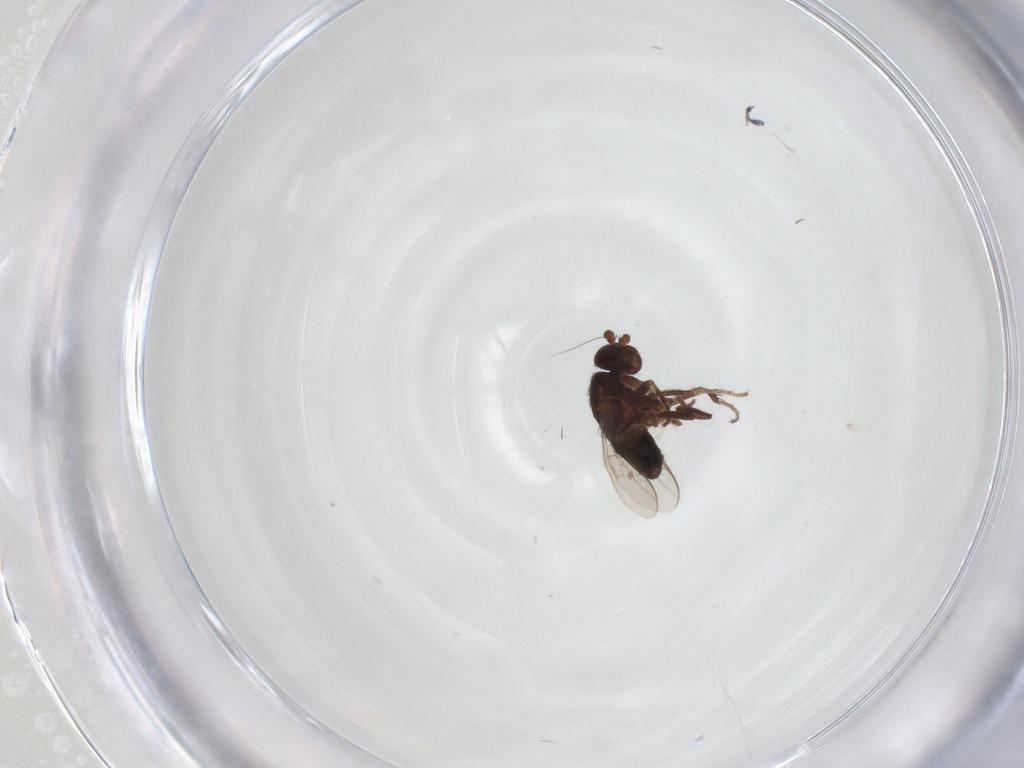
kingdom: Animalia
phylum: Arthropoda
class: Insecta
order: Diptera
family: Sphaeroceridae
